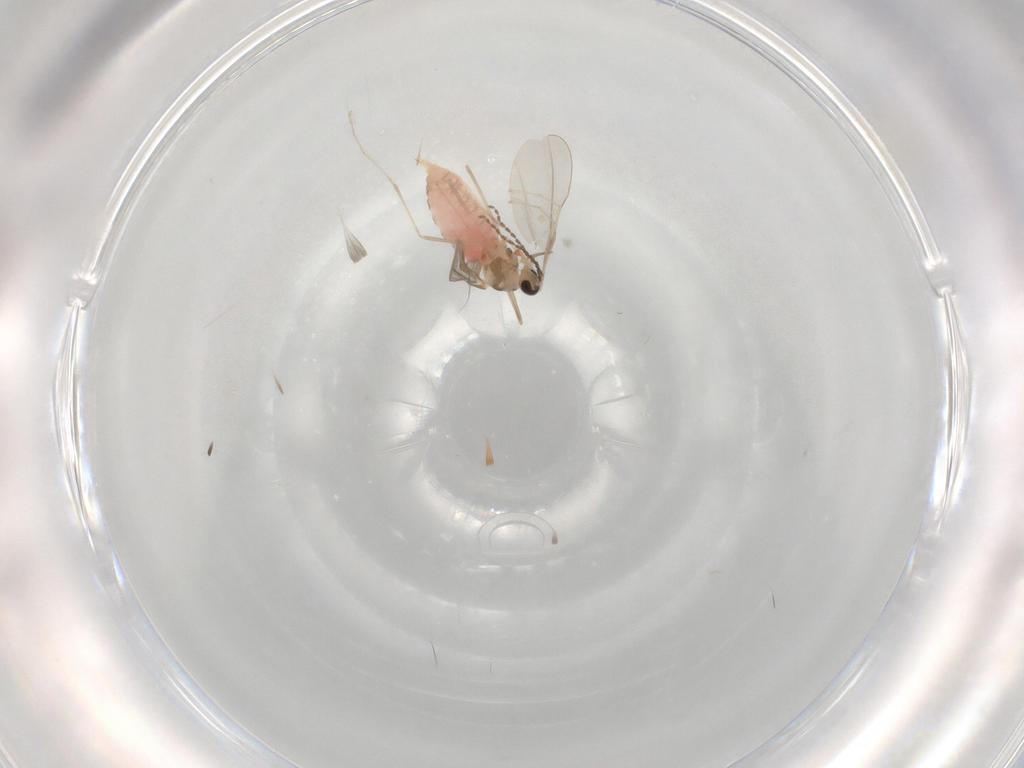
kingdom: Animalia
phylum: Arthropoda
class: Insecta
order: Diptera
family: Cecidomyiidae
